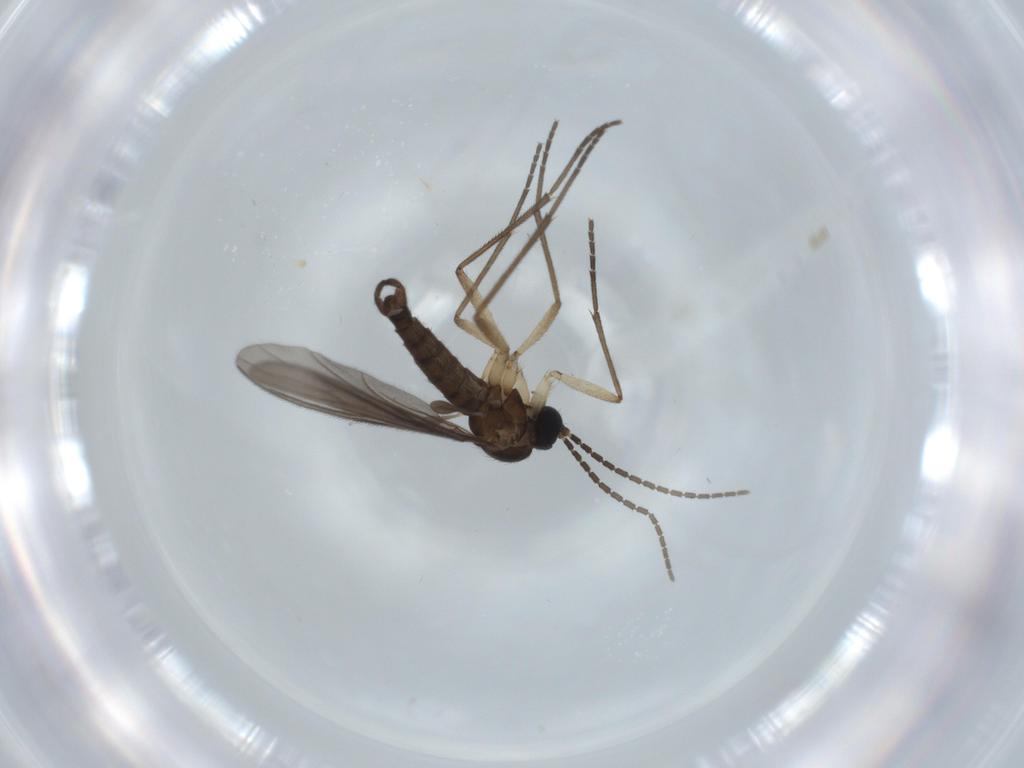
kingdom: Animalia
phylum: Arthropoda
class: Insecta
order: Diptera
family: Sciaridae
